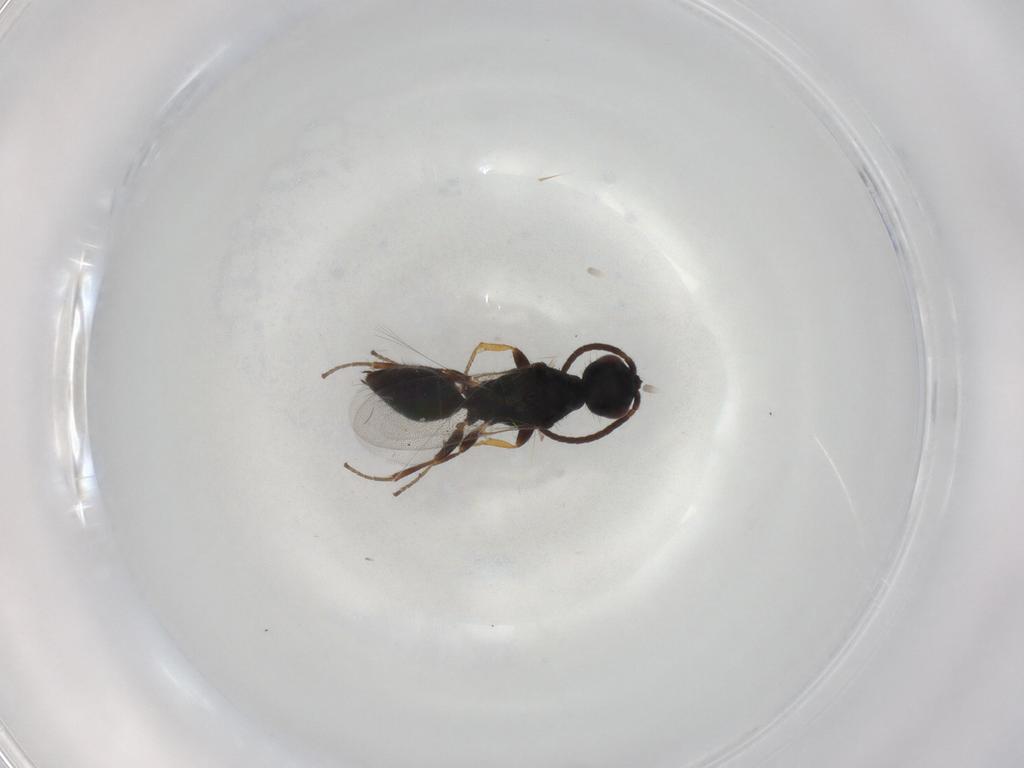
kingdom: Animalia
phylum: Arthropoda
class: Insecta
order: Hymenoptera
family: Bethylidae
